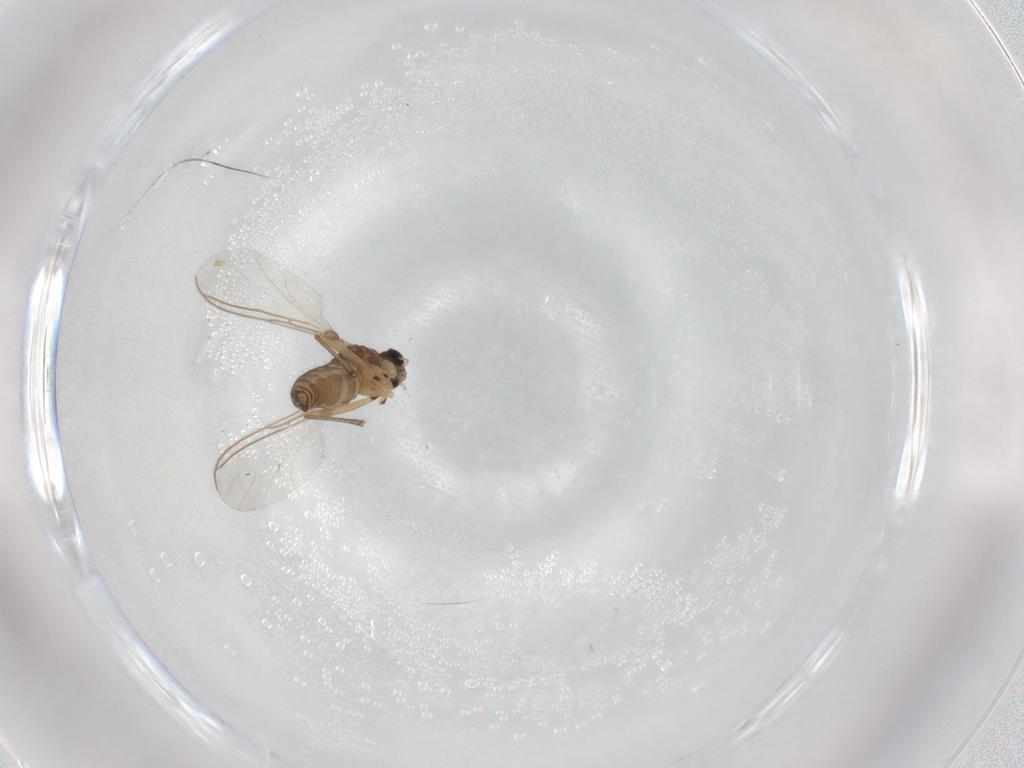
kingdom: Animalia
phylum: Arthropoda
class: Insecta
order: Diptera
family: Sciaridae
